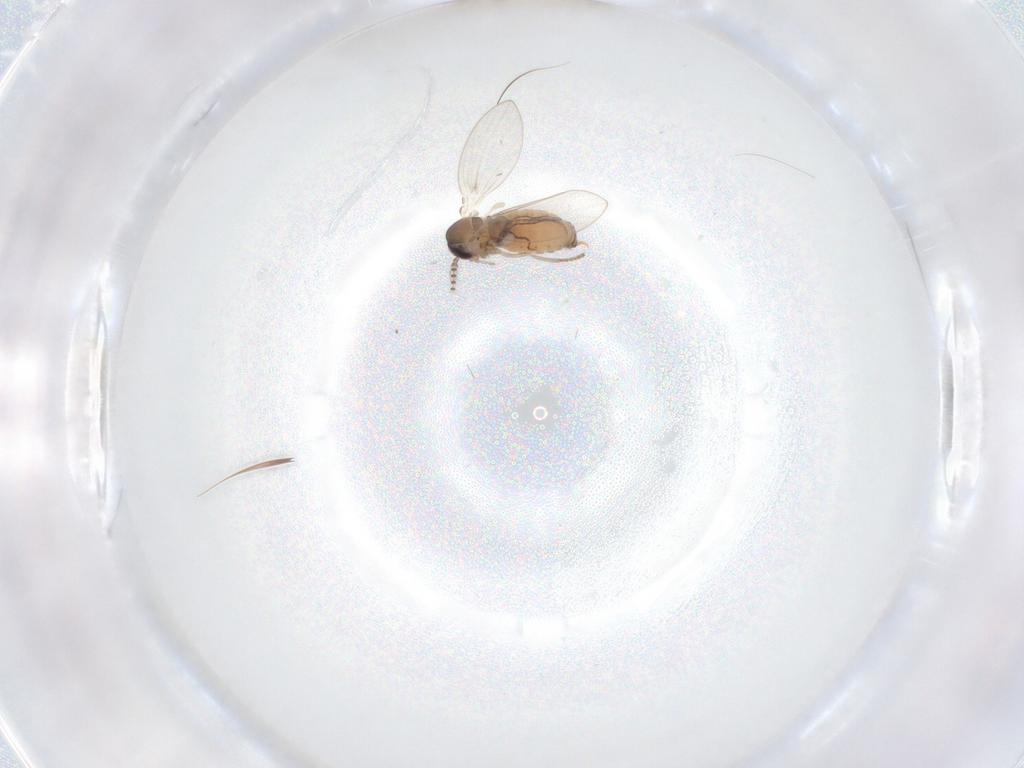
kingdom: Animalia
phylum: Arthropoda
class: Insecta
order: Diptera
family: Psychodidae
